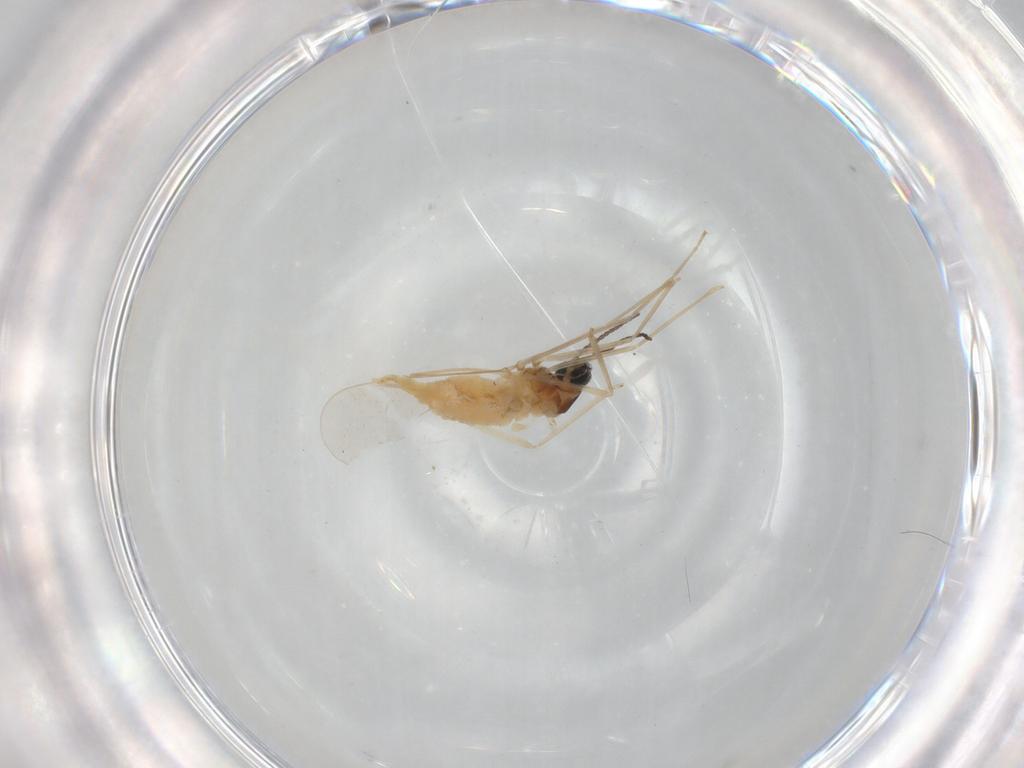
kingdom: Animalia
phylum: Arthropoda
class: Insecta
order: Diptera
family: Cecidomyiidae
